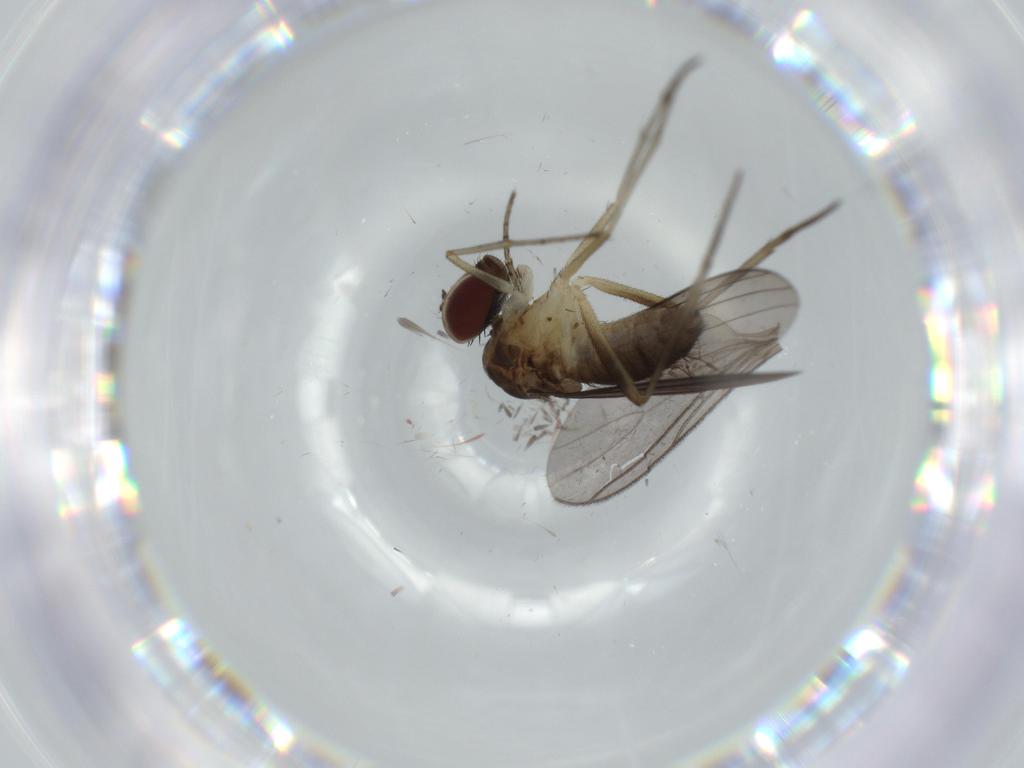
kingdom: Animalia
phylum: Arthropoda
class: Insecta
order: Diptera
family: Dolichopodidae
